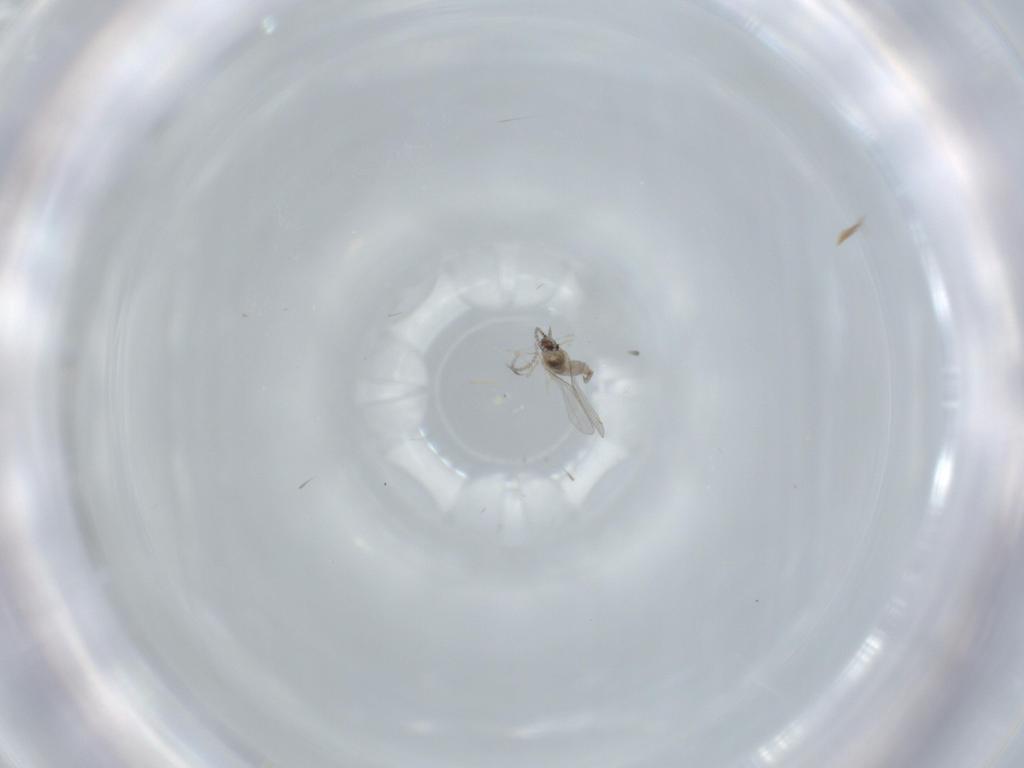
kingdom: Animalia
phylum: Arthropoda
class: Insecta
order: Diptera
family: Cecidomyiidae
